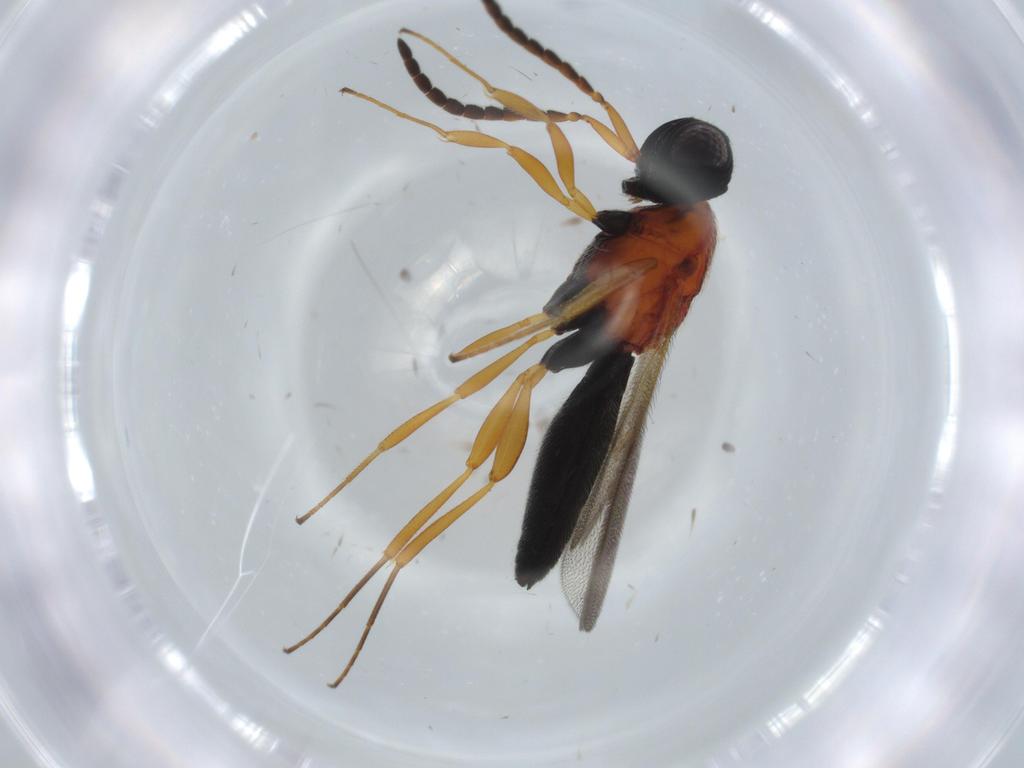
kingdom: Animalia
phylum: Arthropoda
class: Insecta
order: Hymenoptera
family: Scelionidae
